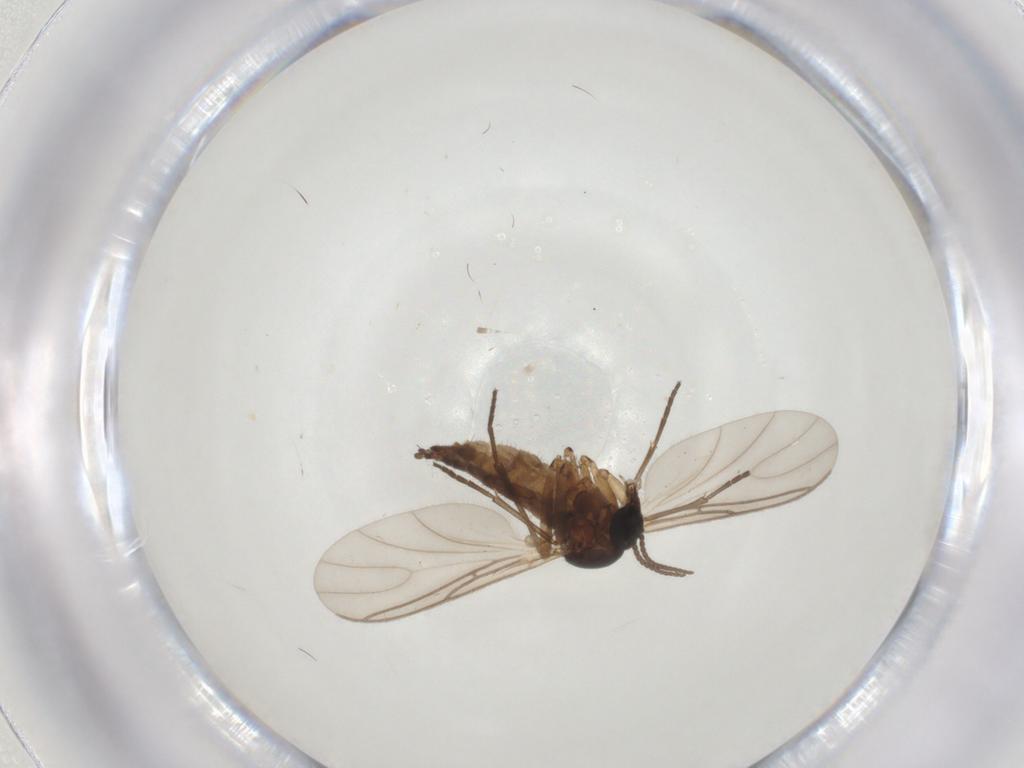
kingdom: Animalia
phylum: Arthropoda
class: Insecta
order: Diptera
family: Sciaridae
